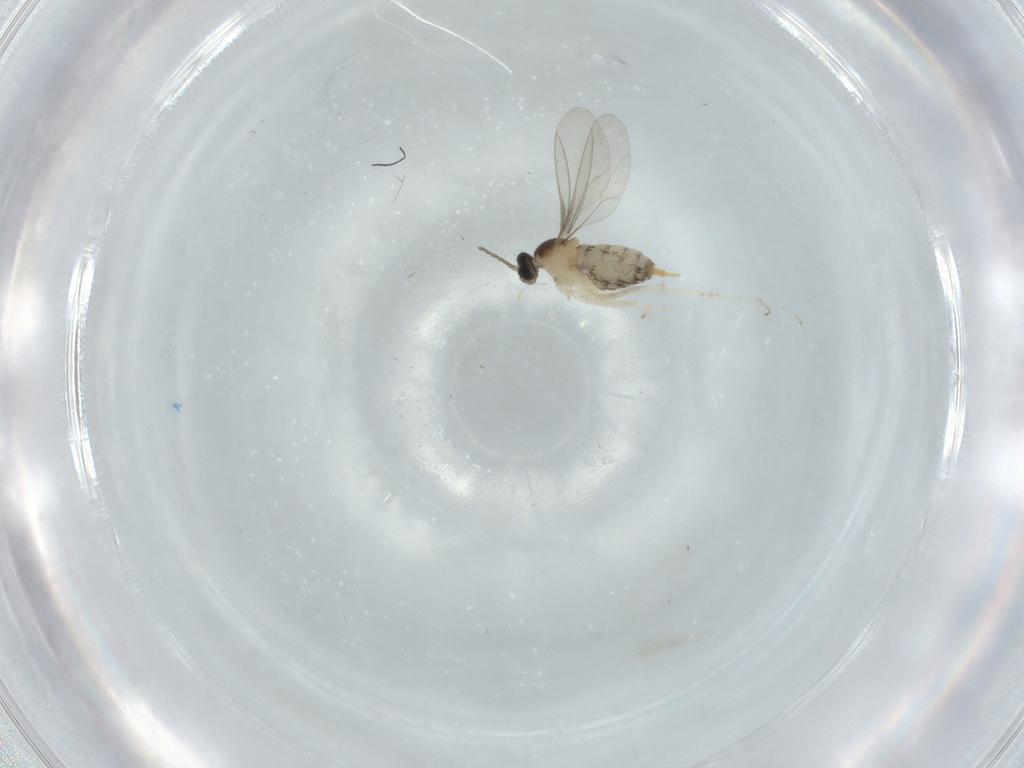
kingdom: Animalia
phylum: Arthropoda
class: Insecta
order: Diptera
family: Cecidomyiidae
